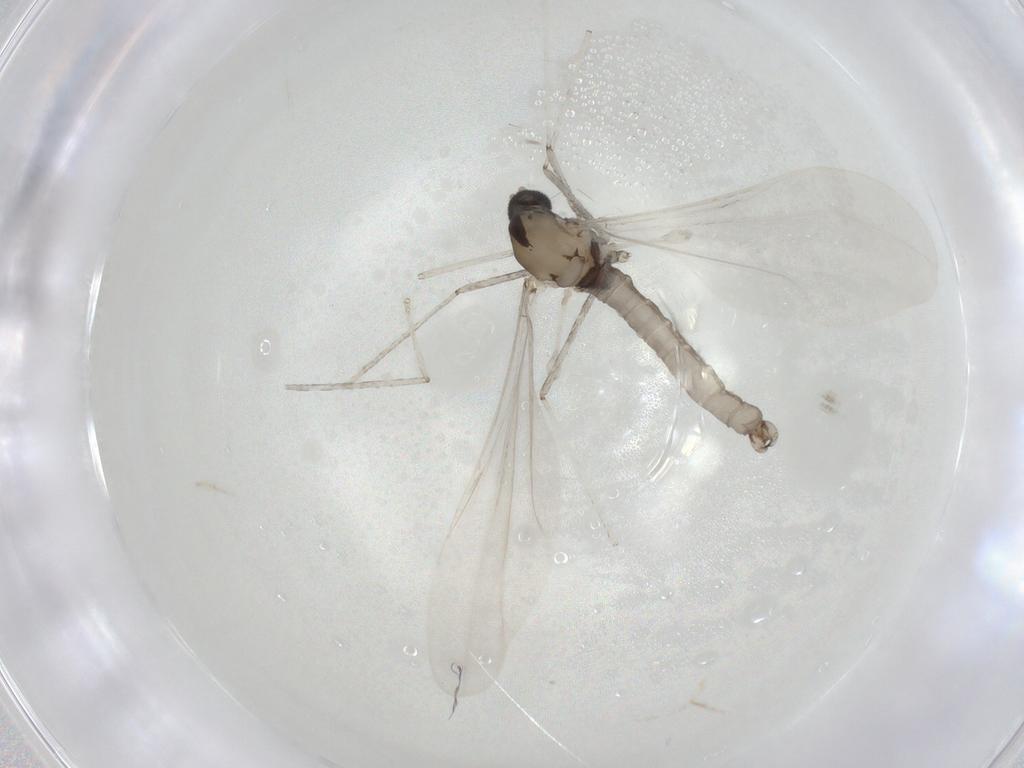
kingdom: Animalia
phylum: Arthropoda
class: Insecta
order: Diptera
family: Cecidomyiidae
